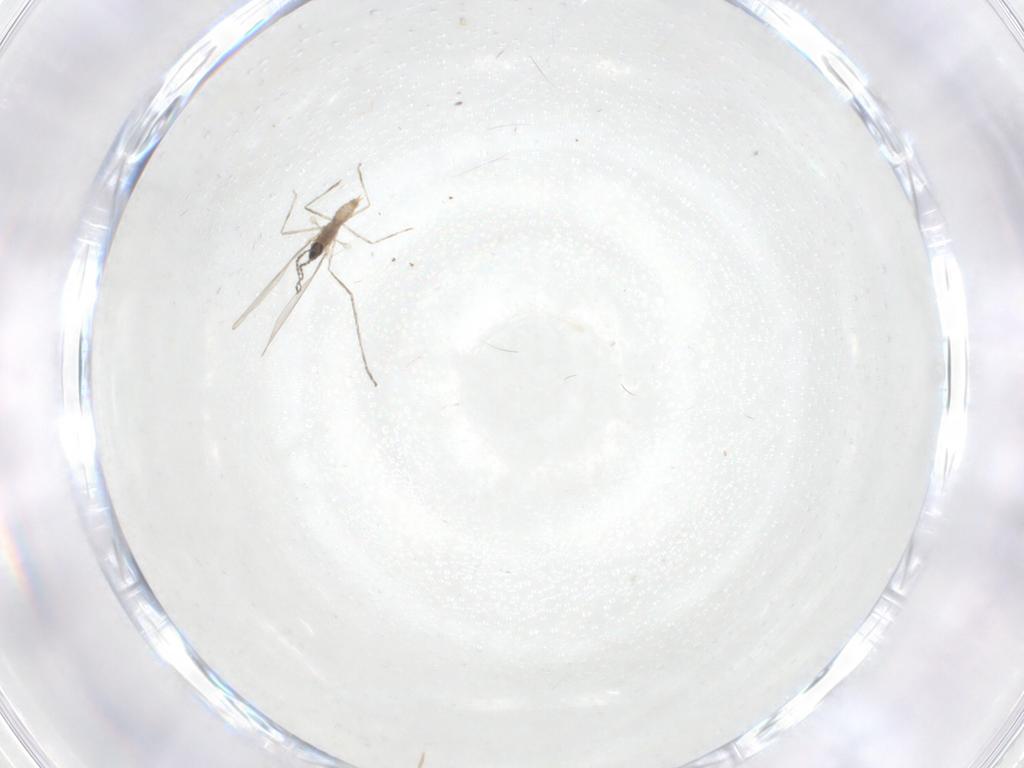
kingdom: Animalia
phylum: Arthropoda
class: Insecta
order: Diptera
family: Cecidomyiidae
